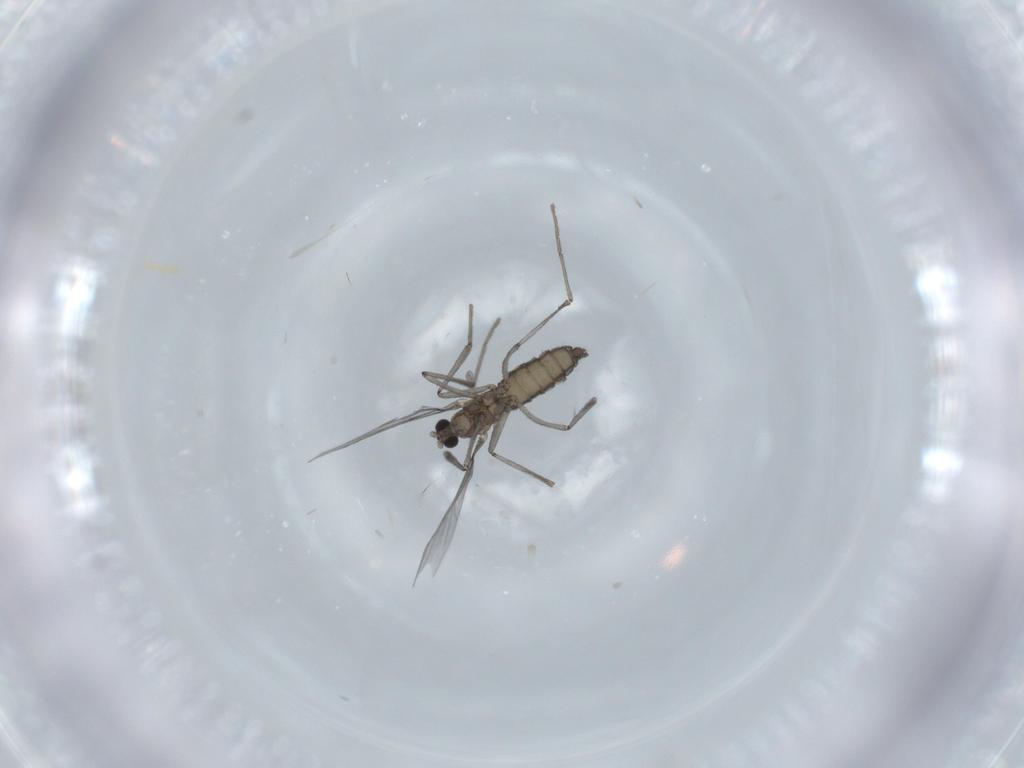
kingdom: Animalia
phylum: Arthropoda
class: Insecta
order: Diptera
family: Cecidomyiidae
